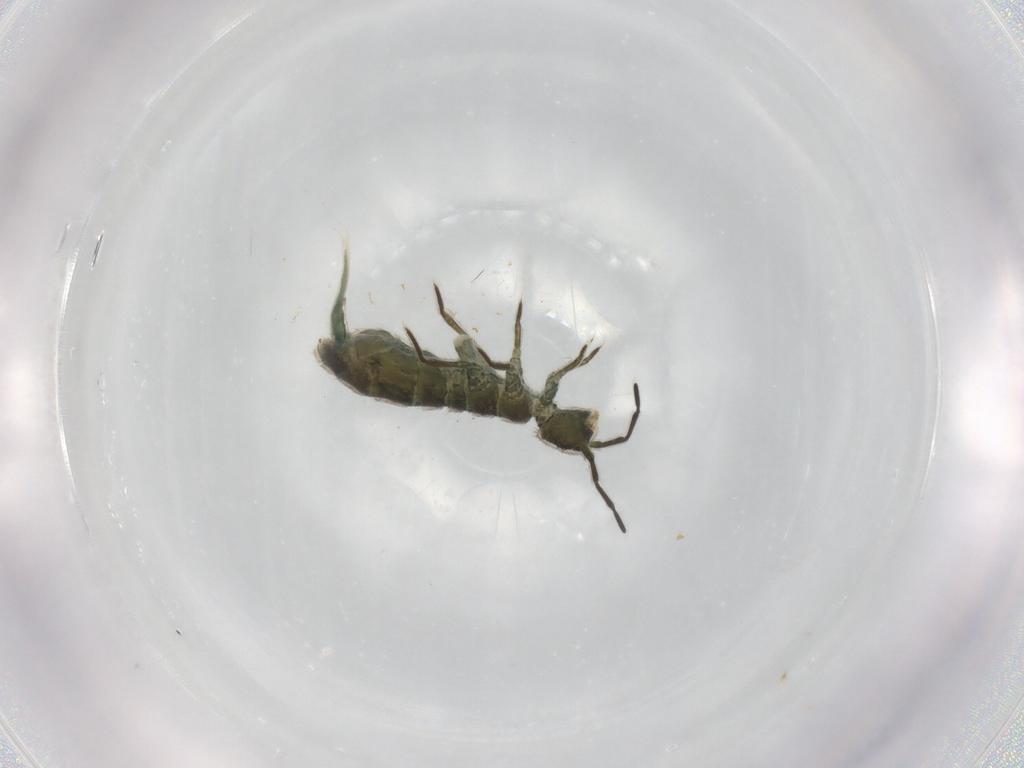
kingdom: Animalia
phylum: Arthropoda
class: Collembola
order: Entomobryomorpha
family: Isotomidae
